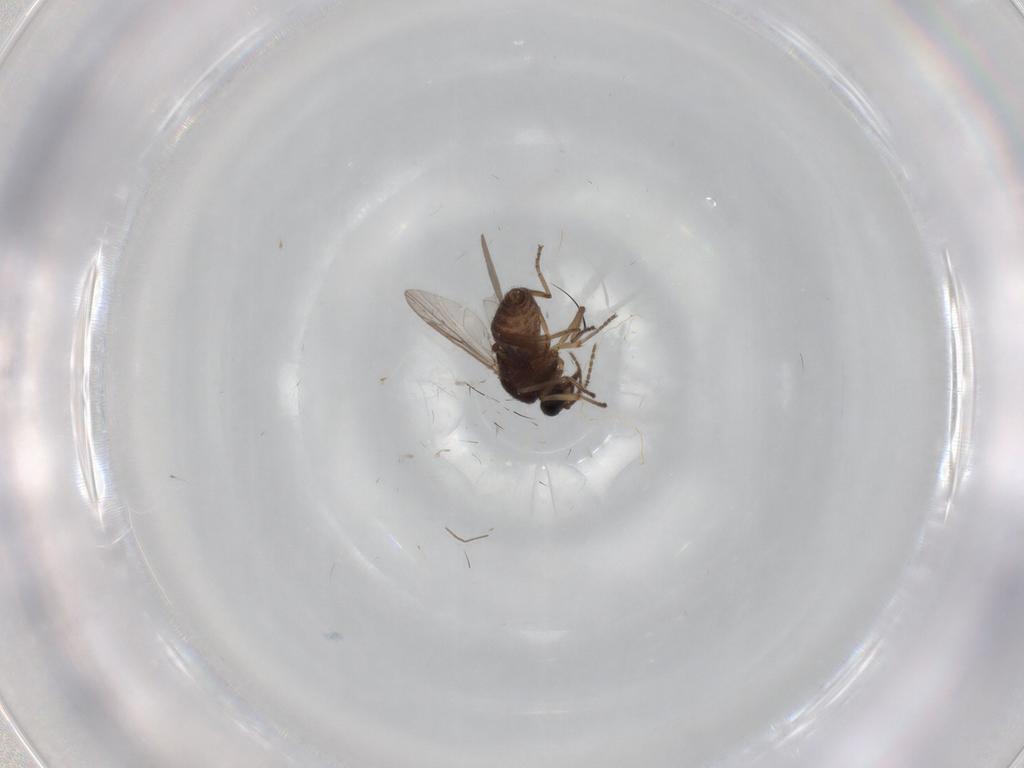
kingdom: Animalia
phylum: Arthropoda
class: Insecta
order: Diptera
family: Ceratopogonidae
